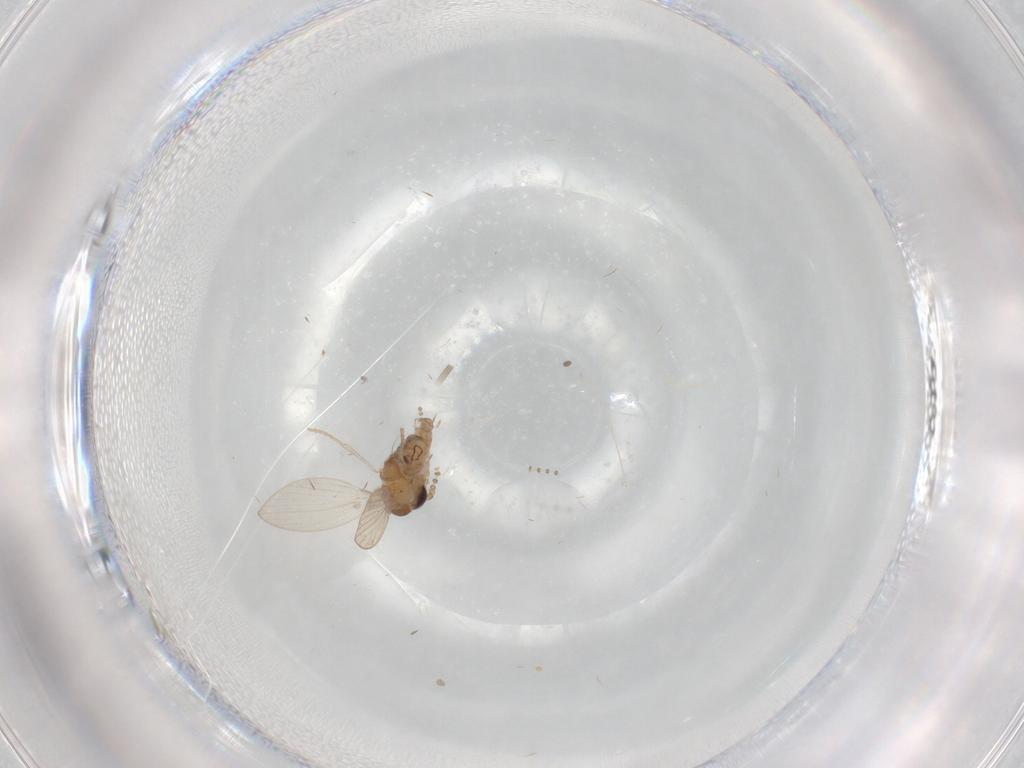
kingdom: Animalia
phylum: Arthropoda
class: Insecta
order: Diptera
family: Psychodidae
